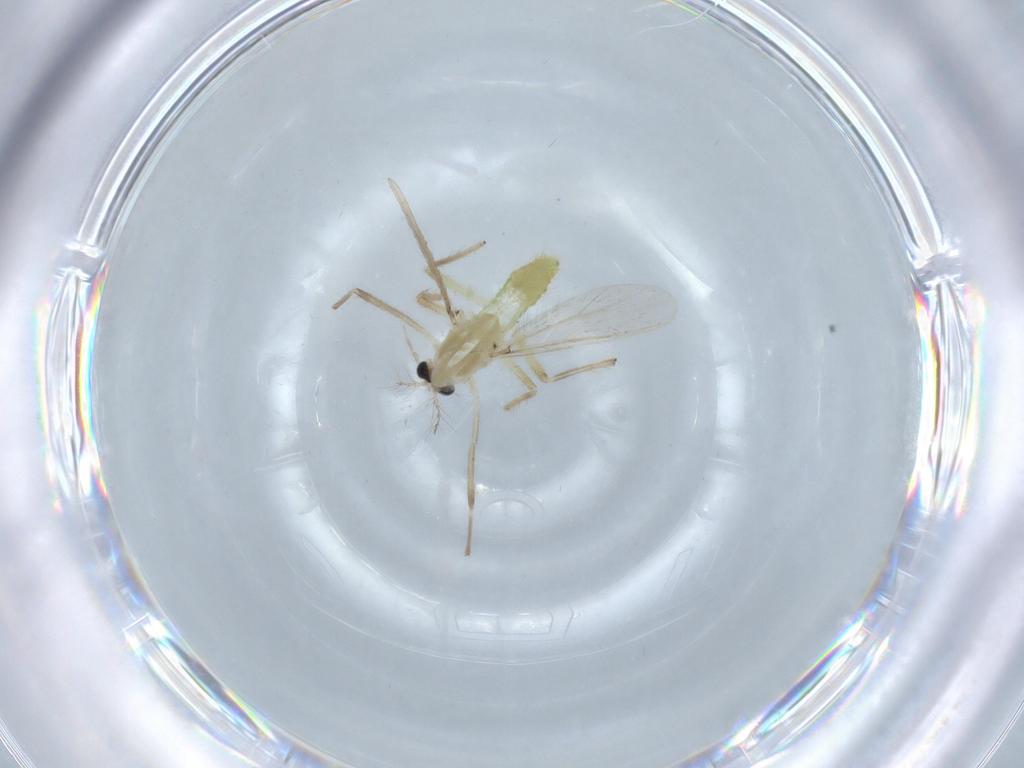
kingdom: Animalia
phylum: Arthropoda
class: Insecta
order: Diptera
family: Chironomidae
